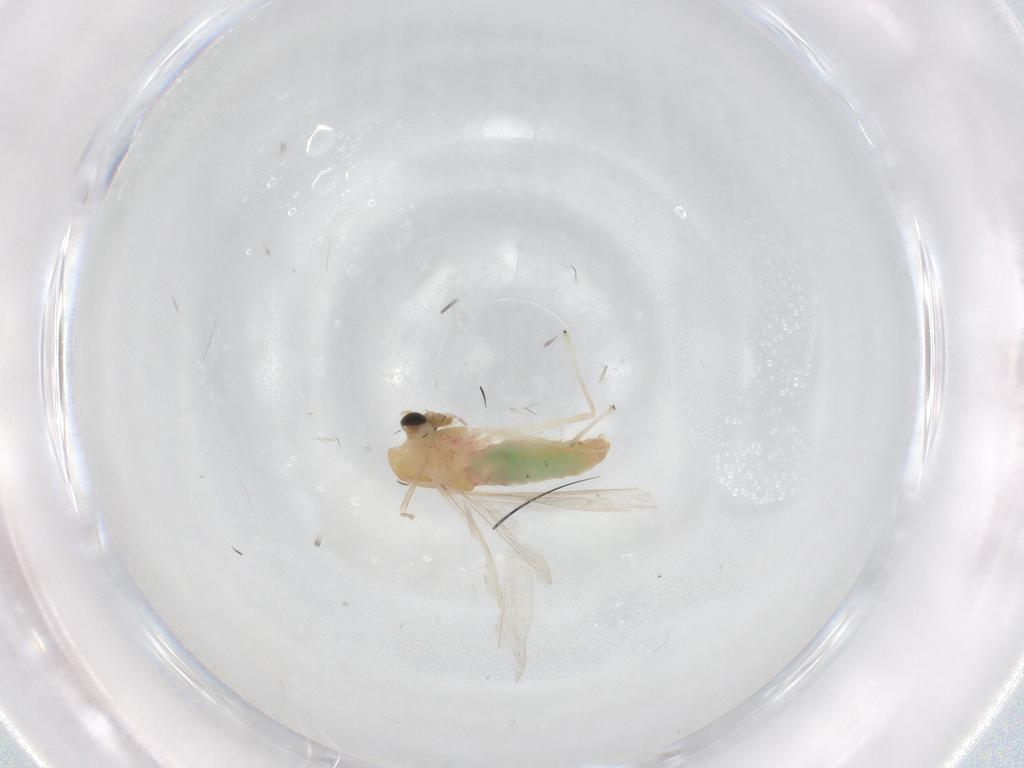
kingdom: Animalia
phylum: Arthropoda
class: Insecta
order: Diptera
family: Chironomidae
